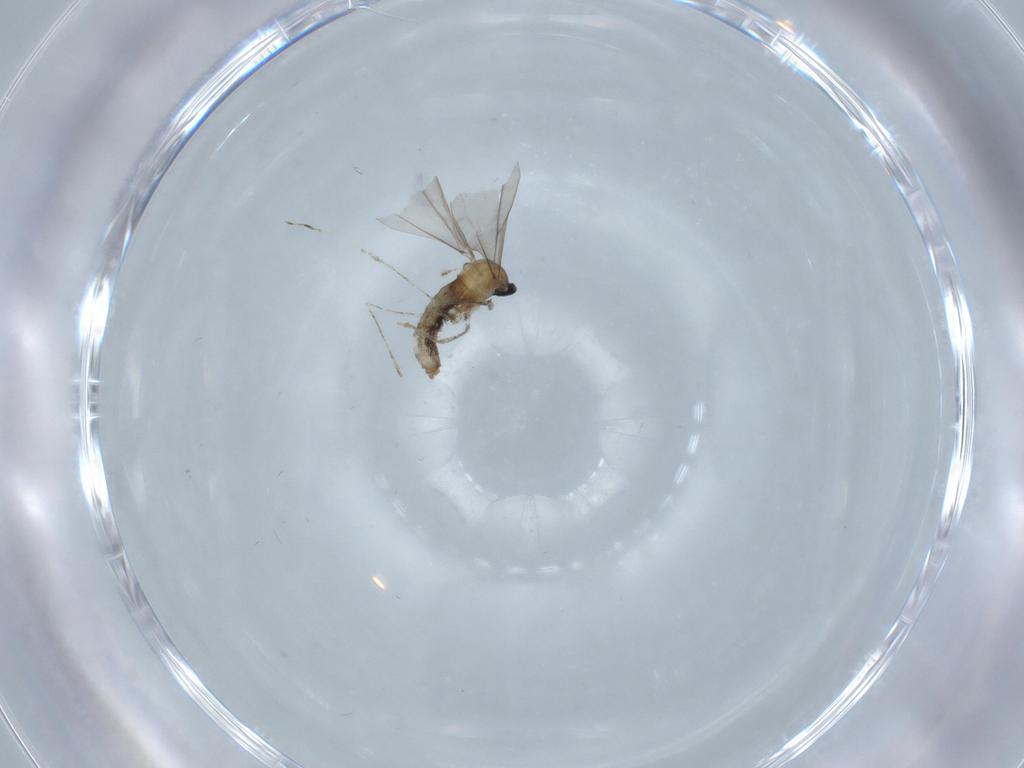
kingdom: Animalia
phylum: Arthropoda
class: Insecta
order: Diptera
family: Cecidomyiidae
